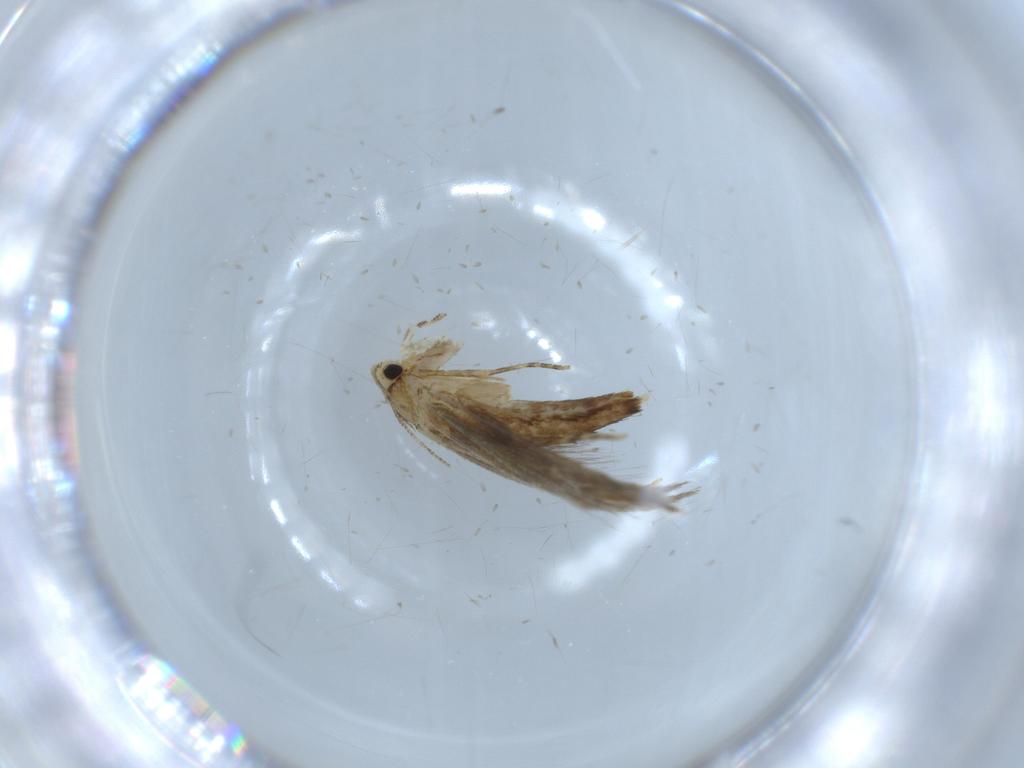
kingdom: Animalia
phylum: Arthropoda
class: Insecta
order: Lepidoptera
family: Tineidae
